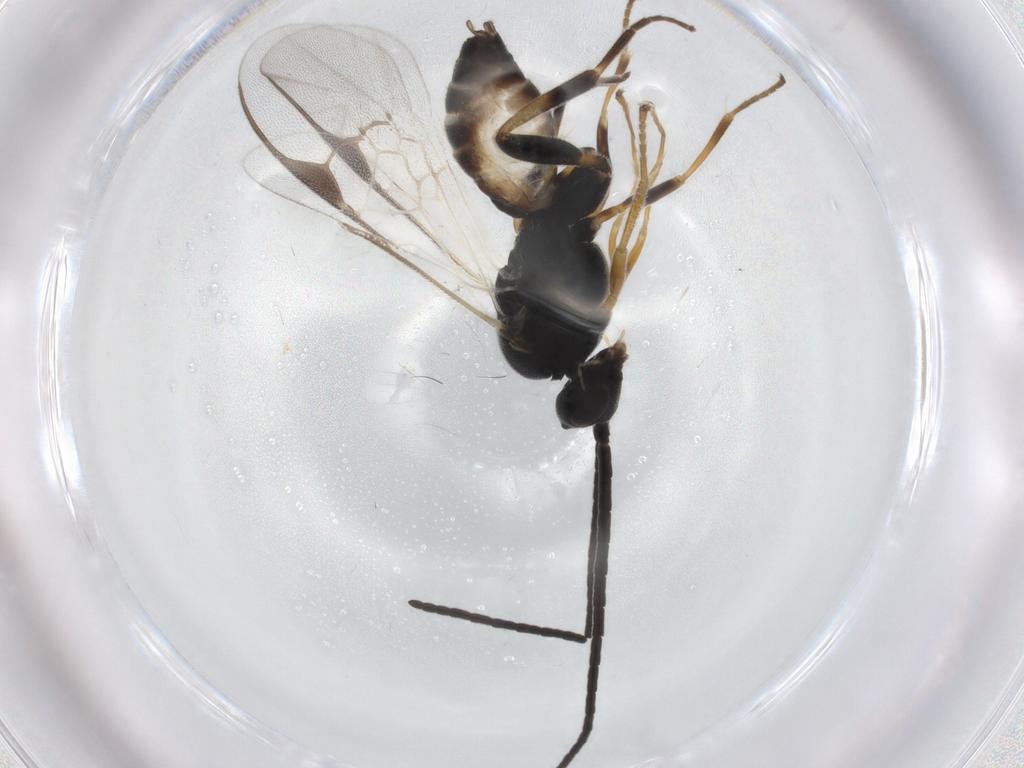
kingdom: Animalia
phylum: Arthropoda
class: Insecta
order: Hymenoptera
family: Braconidae
